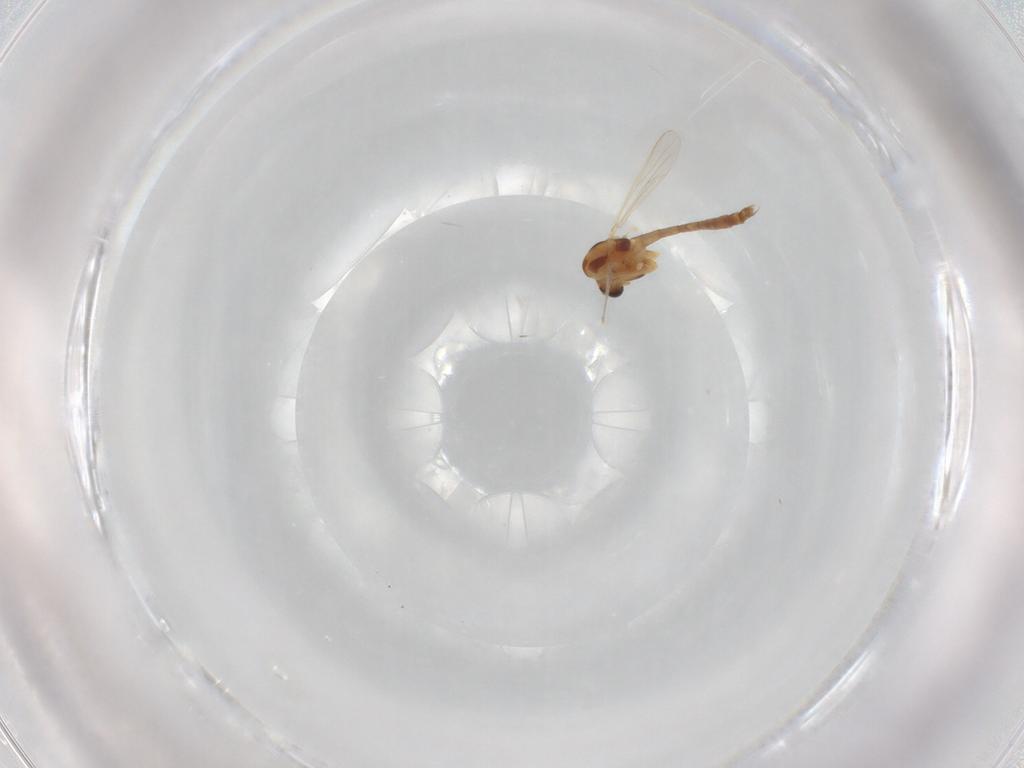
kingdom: Animalia
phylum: Arthropoda
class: Insecta
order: Diptera
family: Chironomidae
